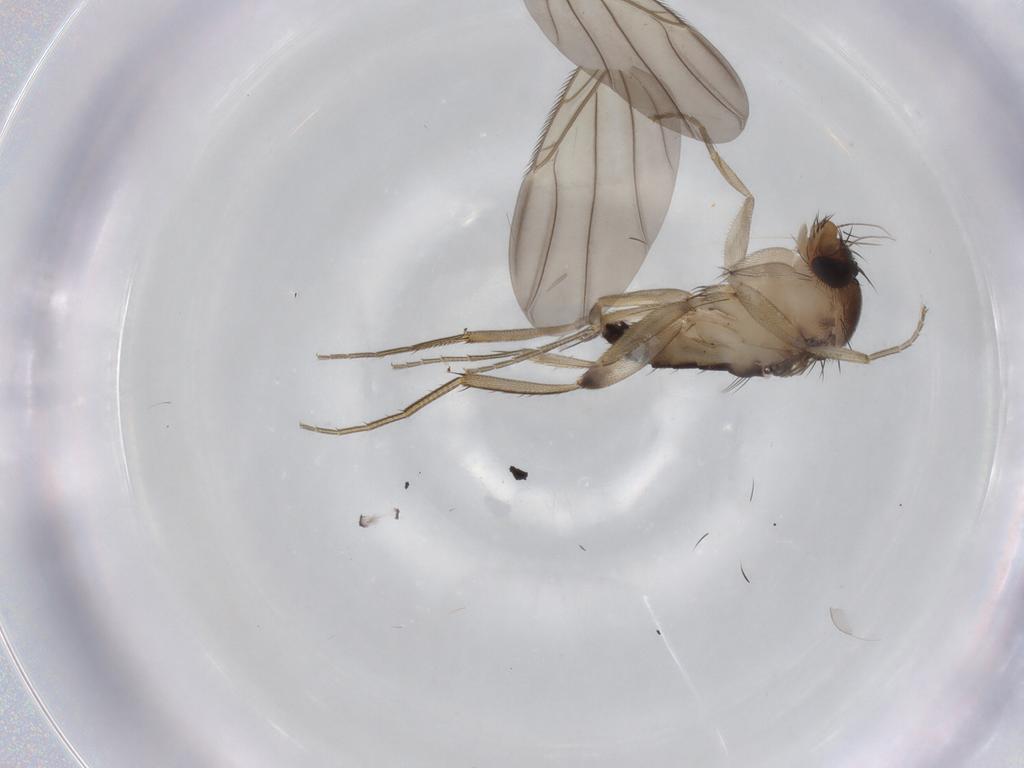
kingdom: Animalia
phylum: Arthropoda
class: Insecta
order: Diptera
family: Phoridae
